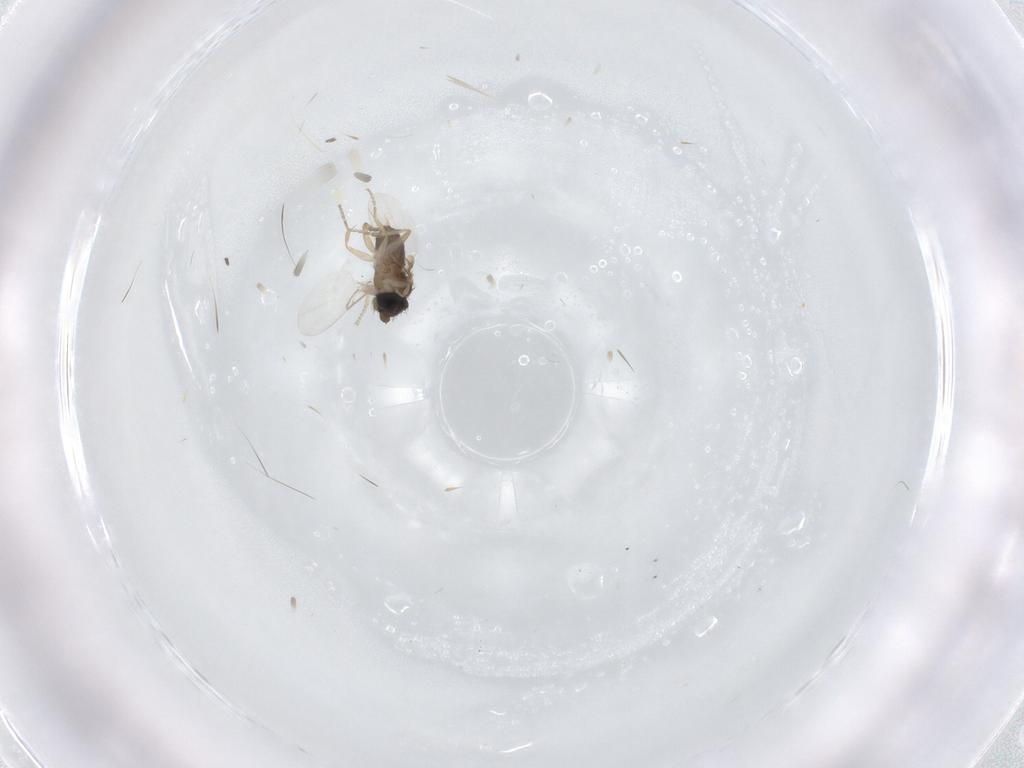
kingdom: Animalia
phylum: Arthropoda
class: Insecta
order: Diptera
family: Phoridae
